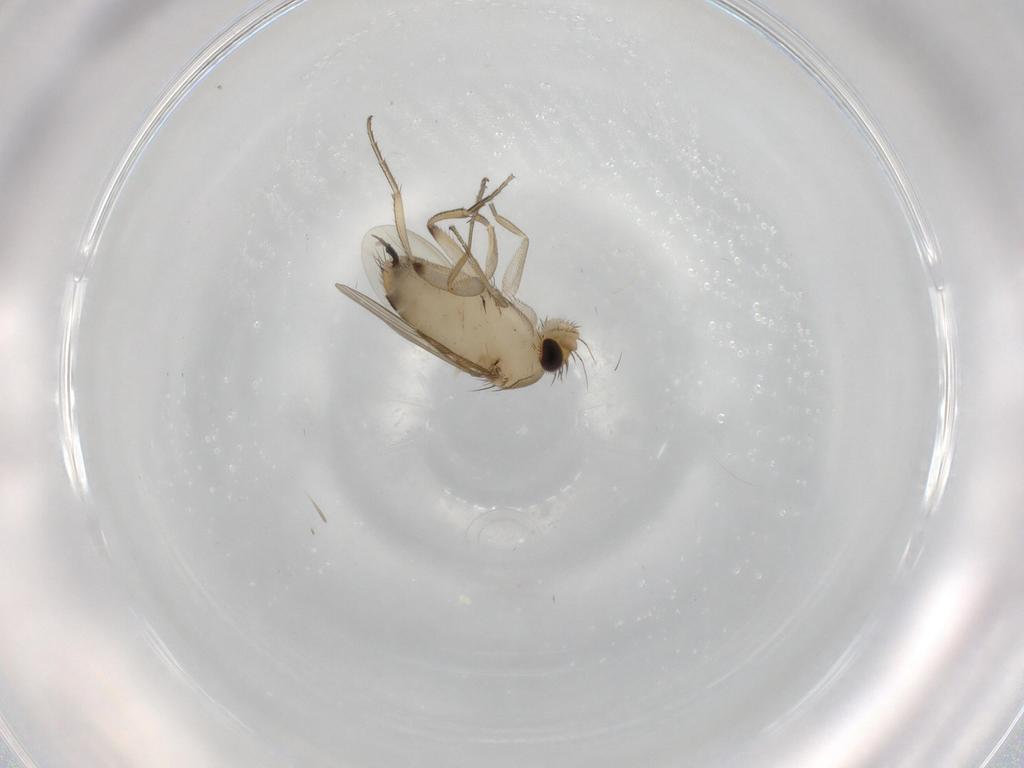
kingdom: Animalia
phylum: Arthropoda
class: Insecta
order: Diptera
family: Phoridae
